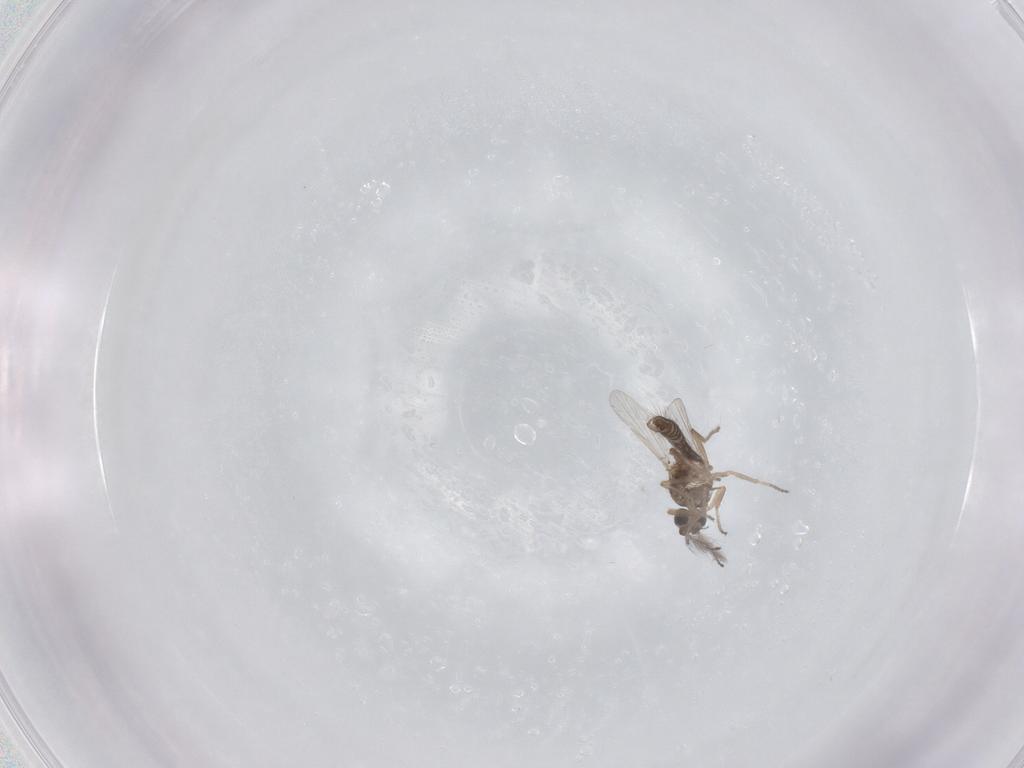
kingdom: Animalia
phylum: Arthropoda
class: Insecta
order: Diptera
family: Ceratopogonidae
